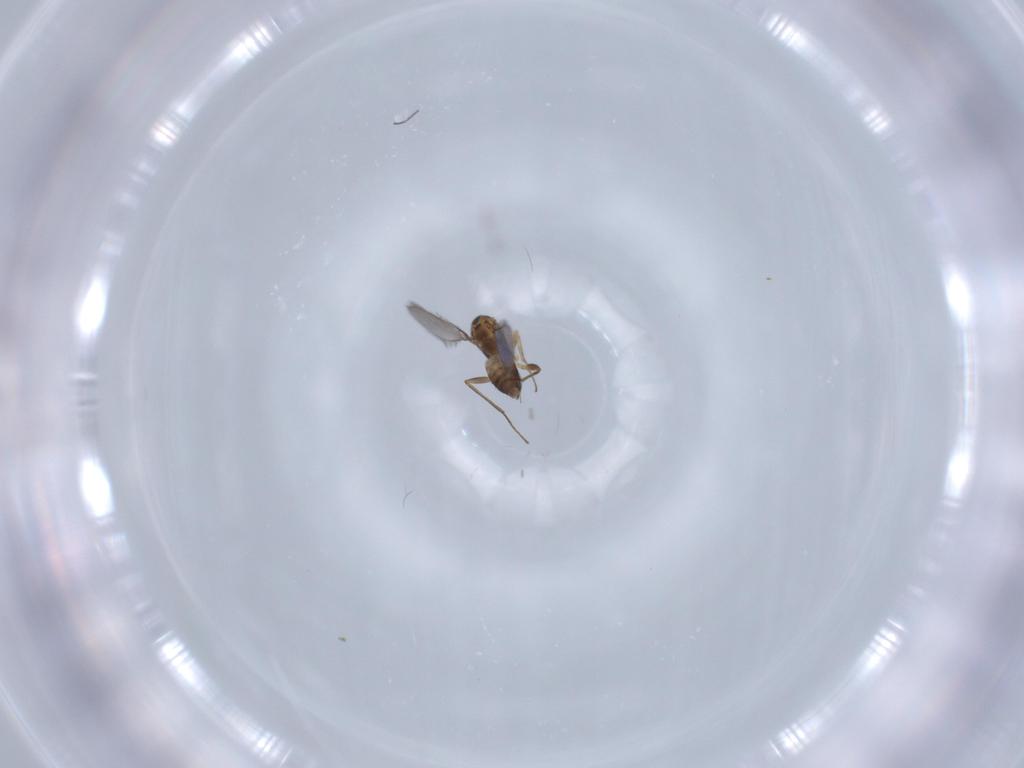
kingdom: Animalia
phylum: Arthropoda
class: Insecta
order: Hymenoptera
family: Mymaridae
